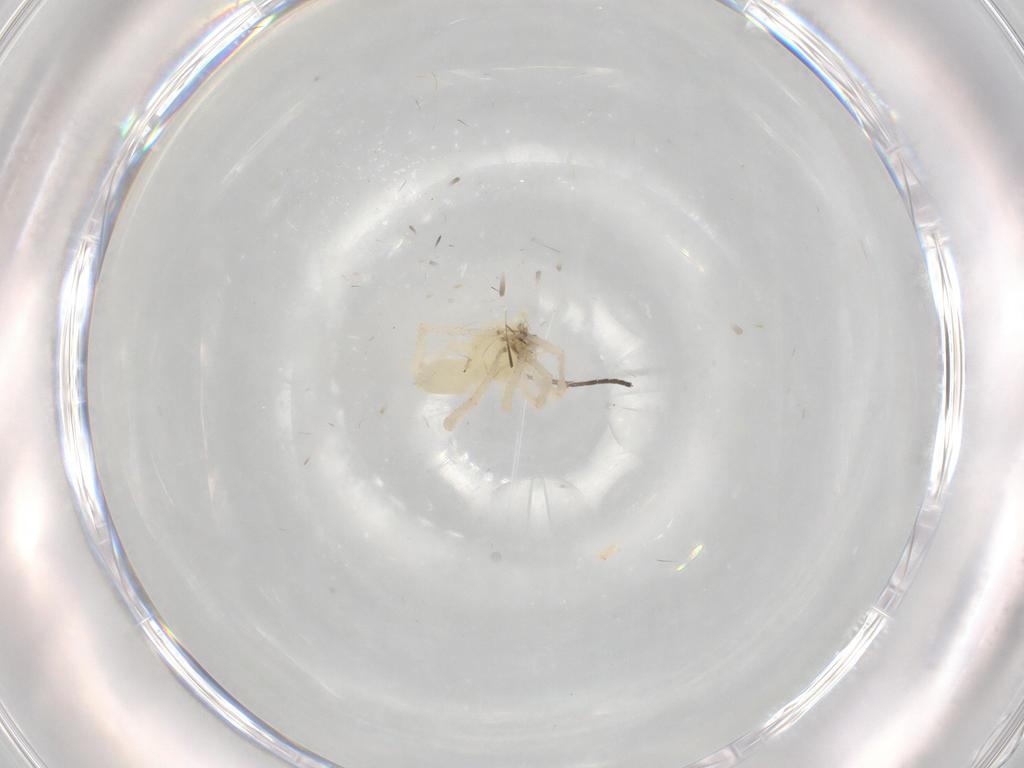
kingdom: Animalia
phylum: Arthropoda
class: Arachnida
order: Araneae
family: Anyphaenidae
